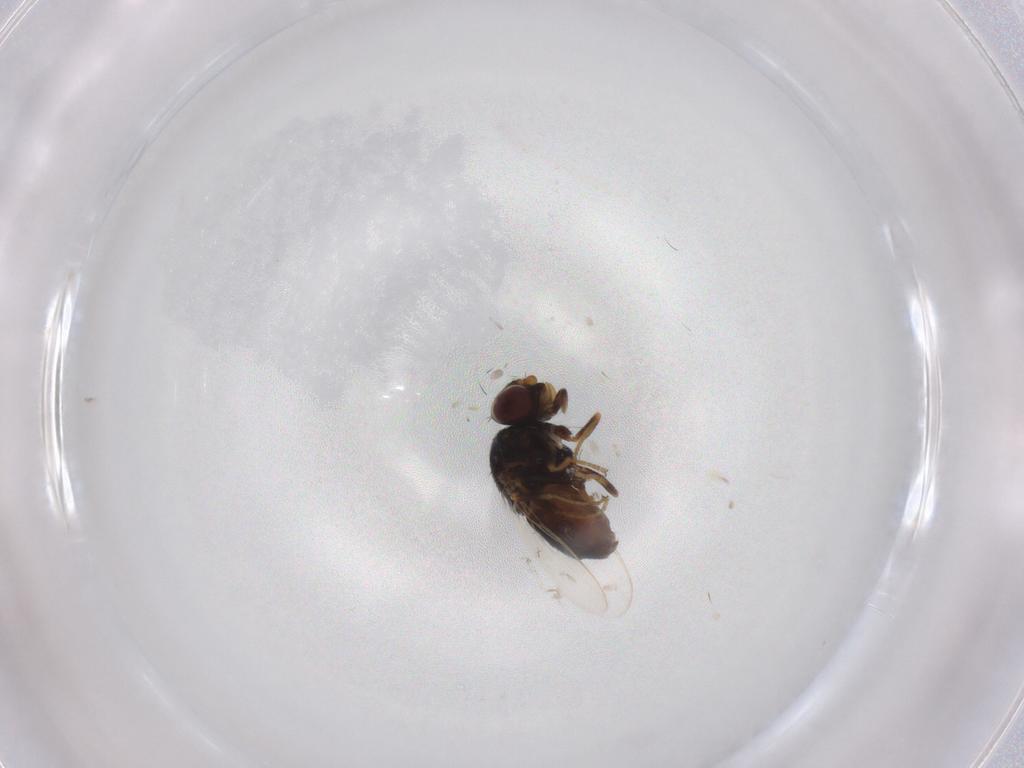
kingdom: Animalia
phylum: Arthropoda
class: Insecta
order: Diptera
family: Chloropidae
